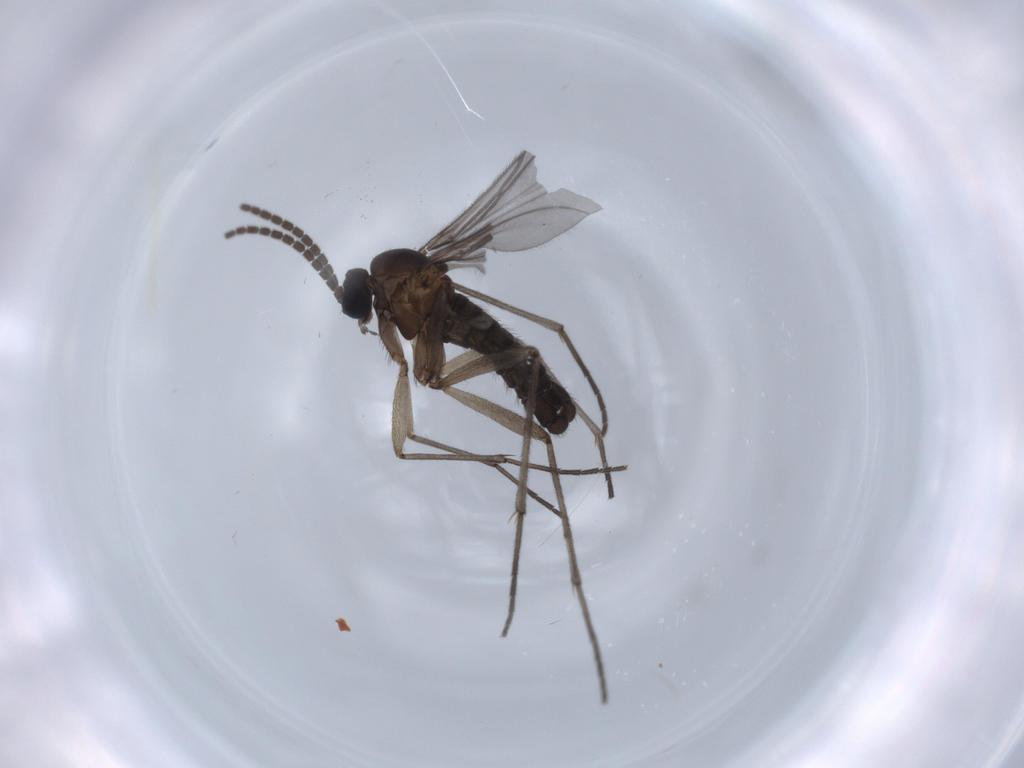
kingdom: Animalia
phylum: Arthropoda
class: Insecta
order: Diptera
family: Sciaridae
